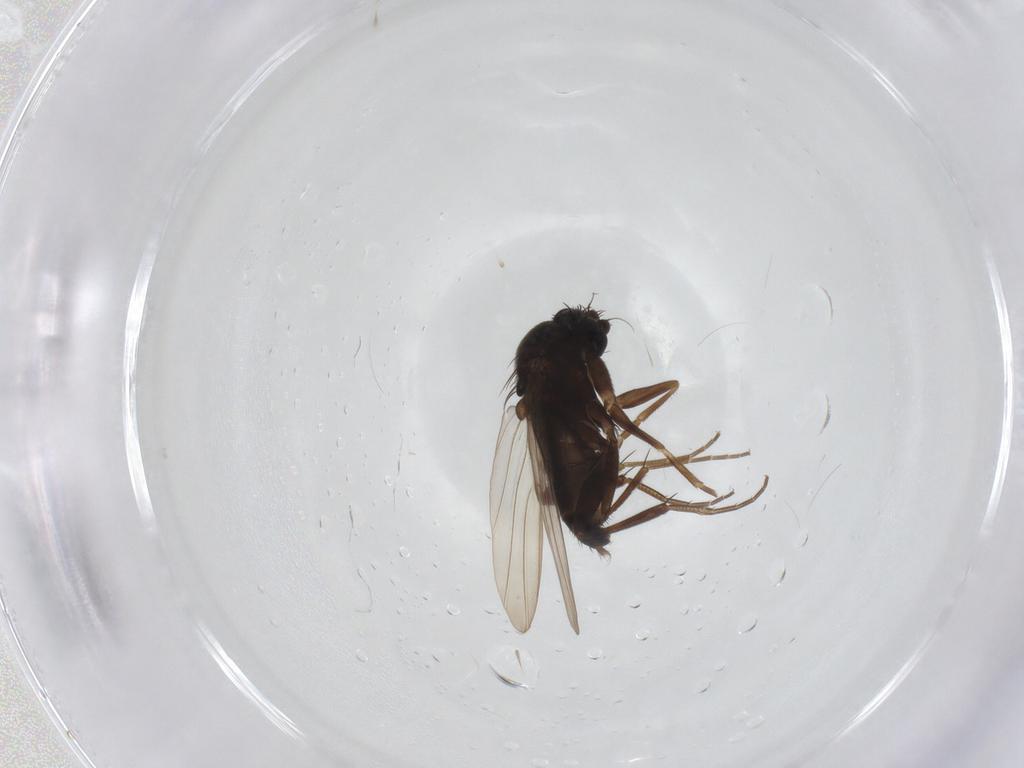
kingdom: Animalia
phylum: Arthropoda
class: Insecta
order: Diptera
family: Phoridae
